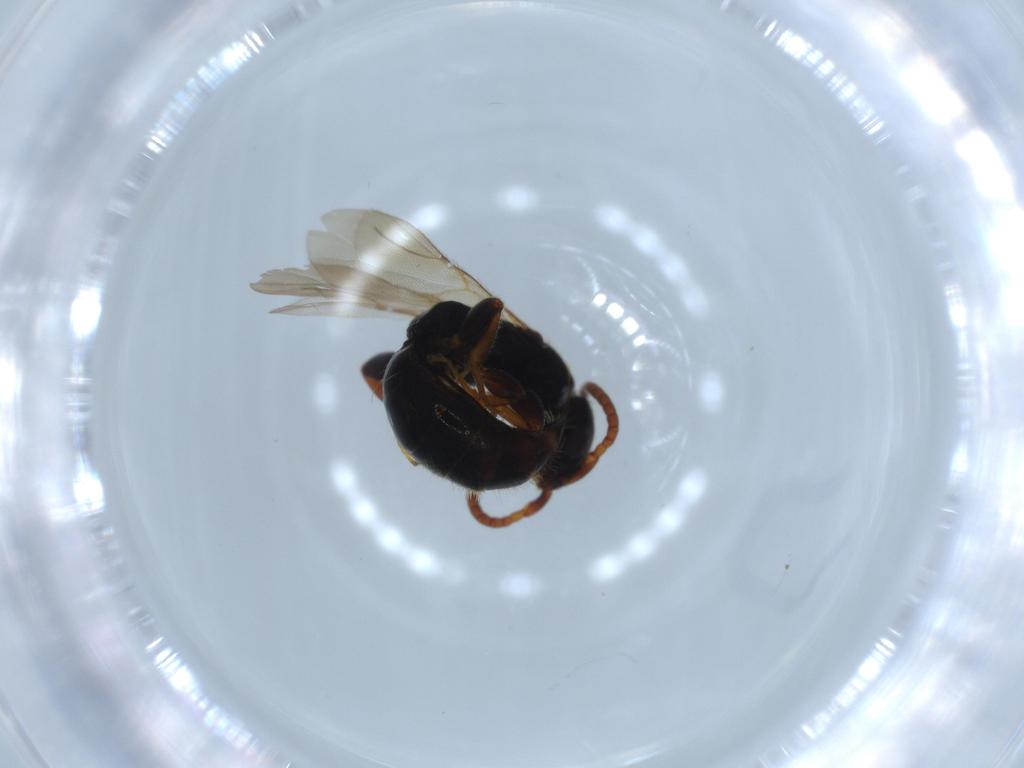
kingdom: Animalia
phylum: Arthropoda
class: Insecta
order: Hymenoptera
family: Bethylidae
